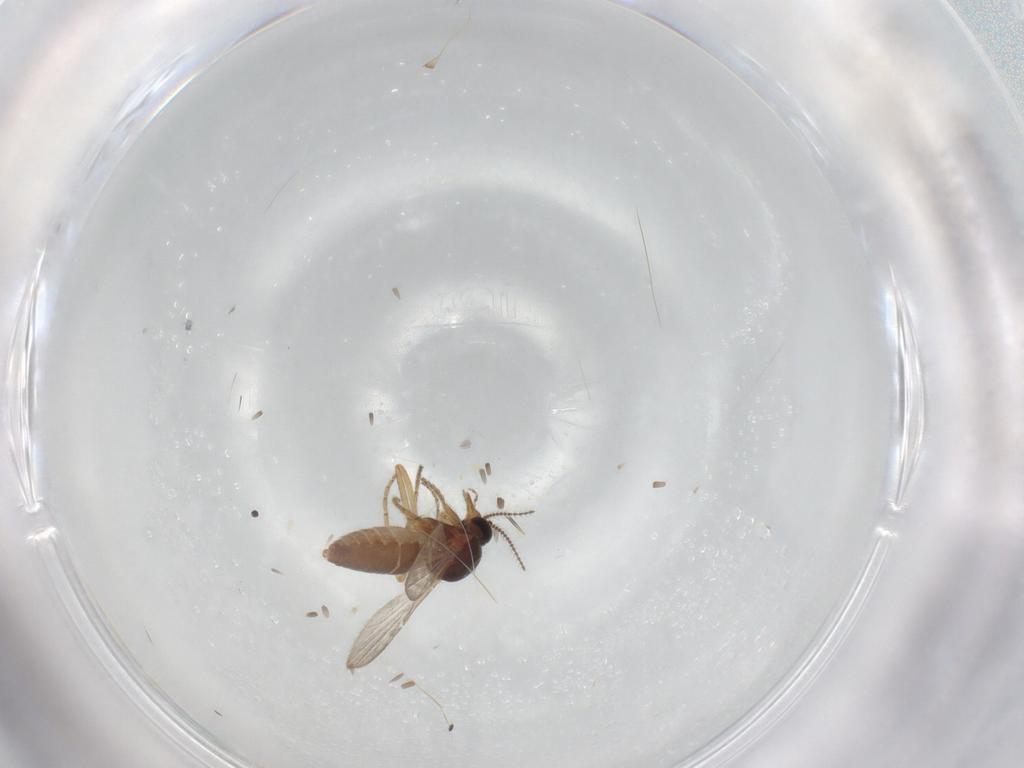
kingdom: Animalia
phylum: Arthropoda
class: Insecta
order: Diptera
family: Ceratopogonidae
